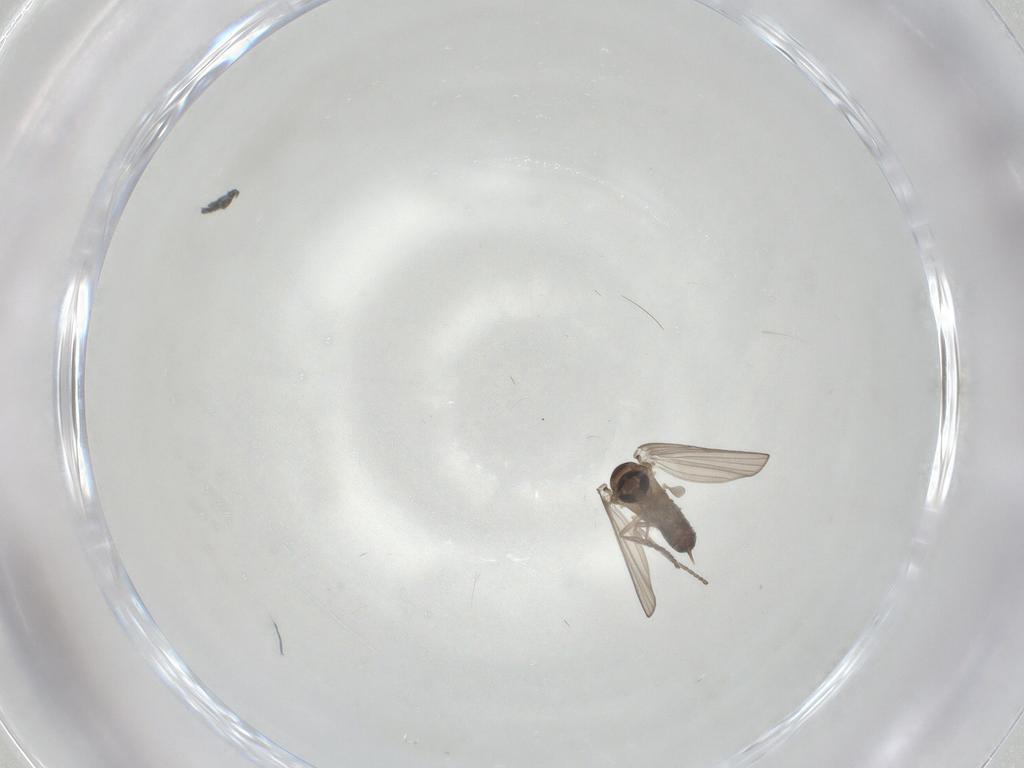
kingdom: Animalia
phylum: Arthropoda
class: Insecta
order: Diptera
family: Psychodidae
